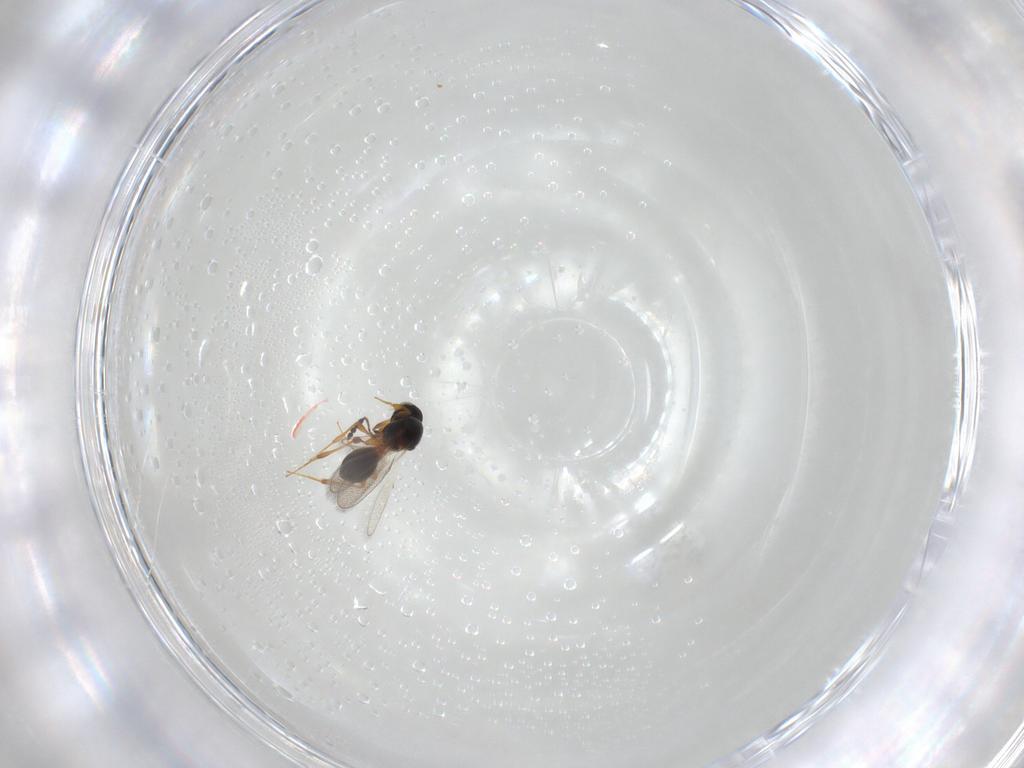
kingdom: Animalia
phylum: Arthropoda
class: Insecta
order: Hymenoptera
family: Platygastridae
